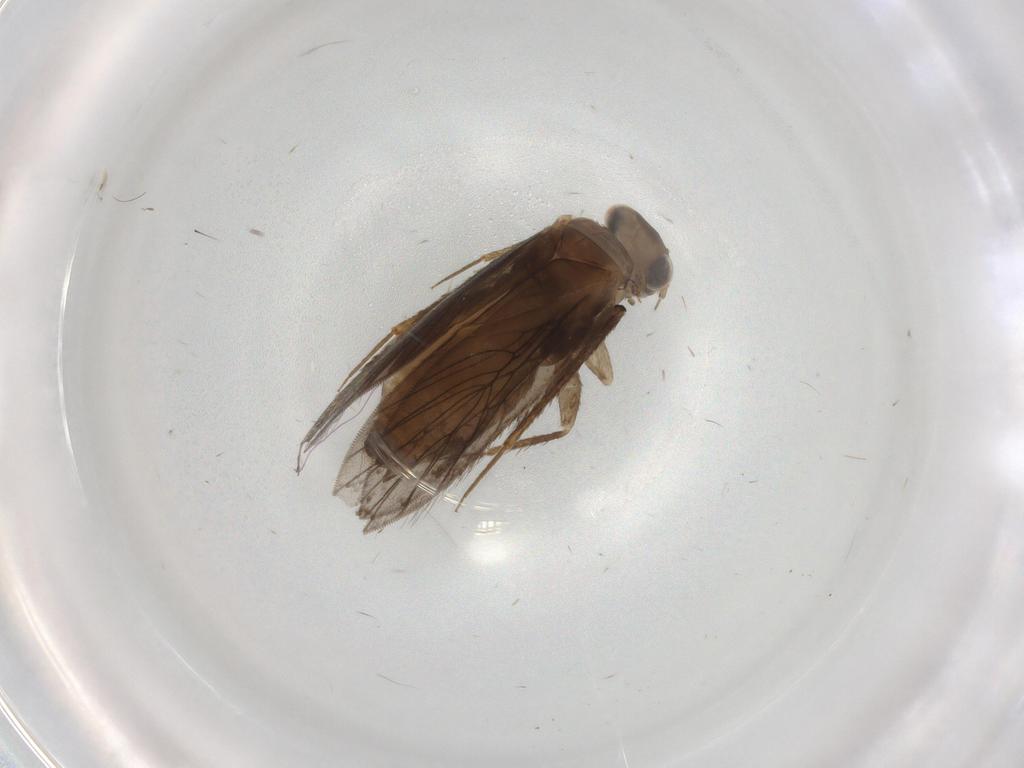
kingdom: Animalia
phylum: Arthropoda
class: Insecta
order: Psocodea
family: Lepidopsocidae
